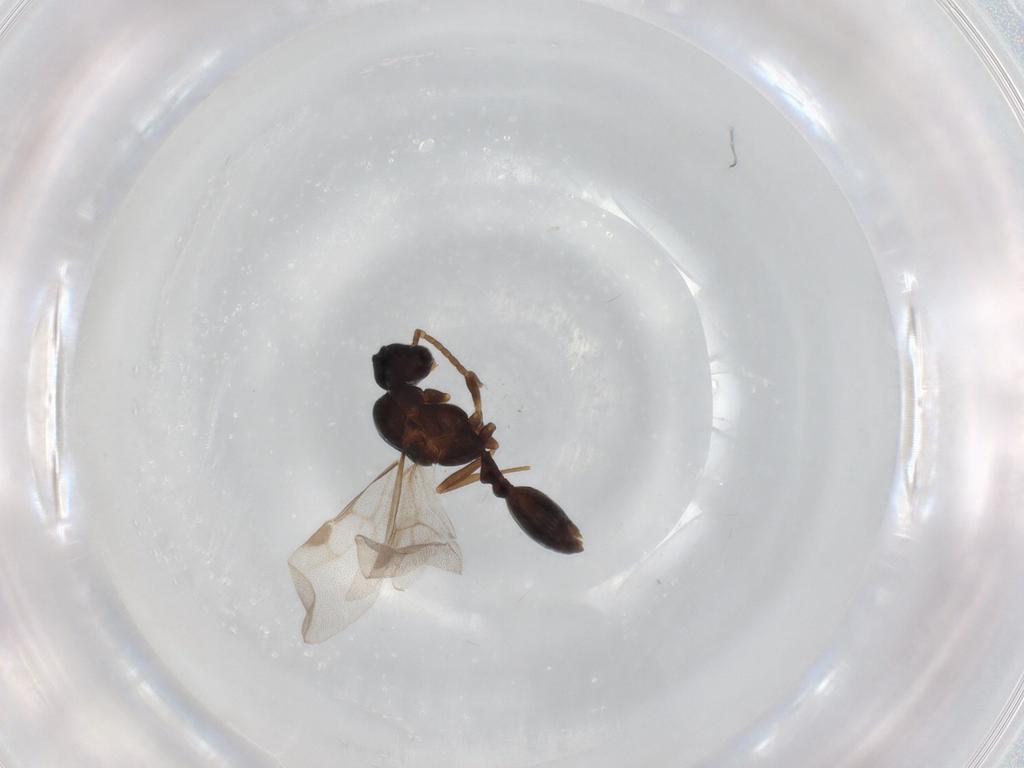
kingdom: Animalia
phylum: Arthropoda
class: Insecta
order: Hymenoptera
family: Formicidae
